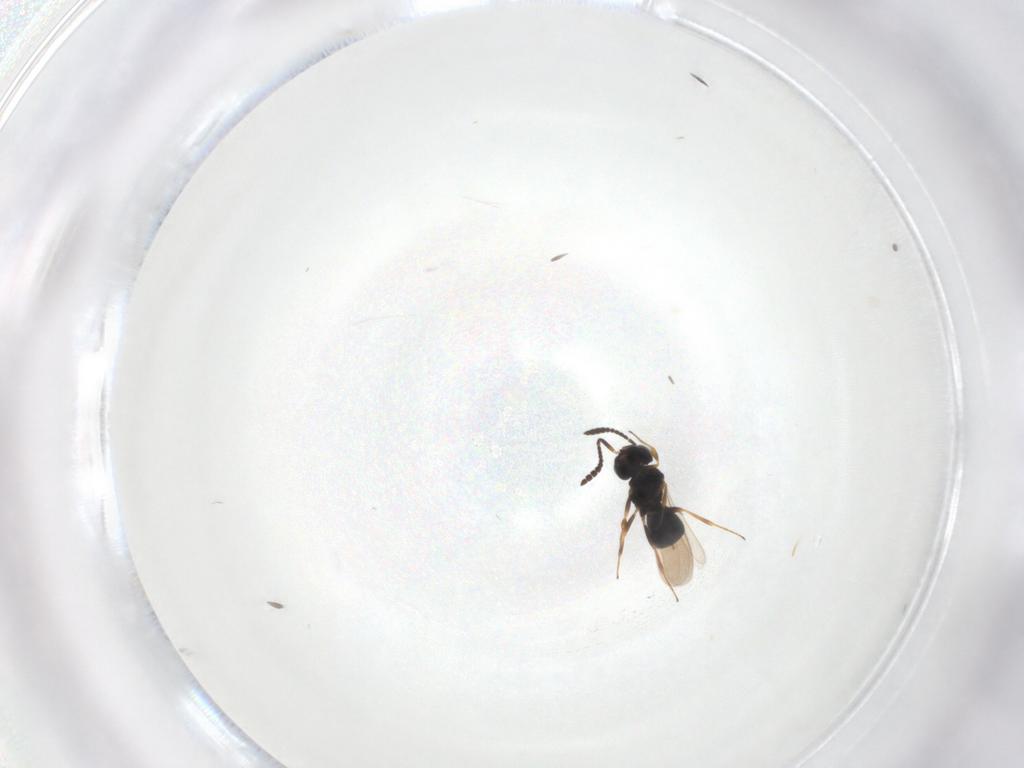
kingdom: Animalia
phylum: Arthropoda
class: Insecta
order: Hymenoptera
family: Scelionidae
